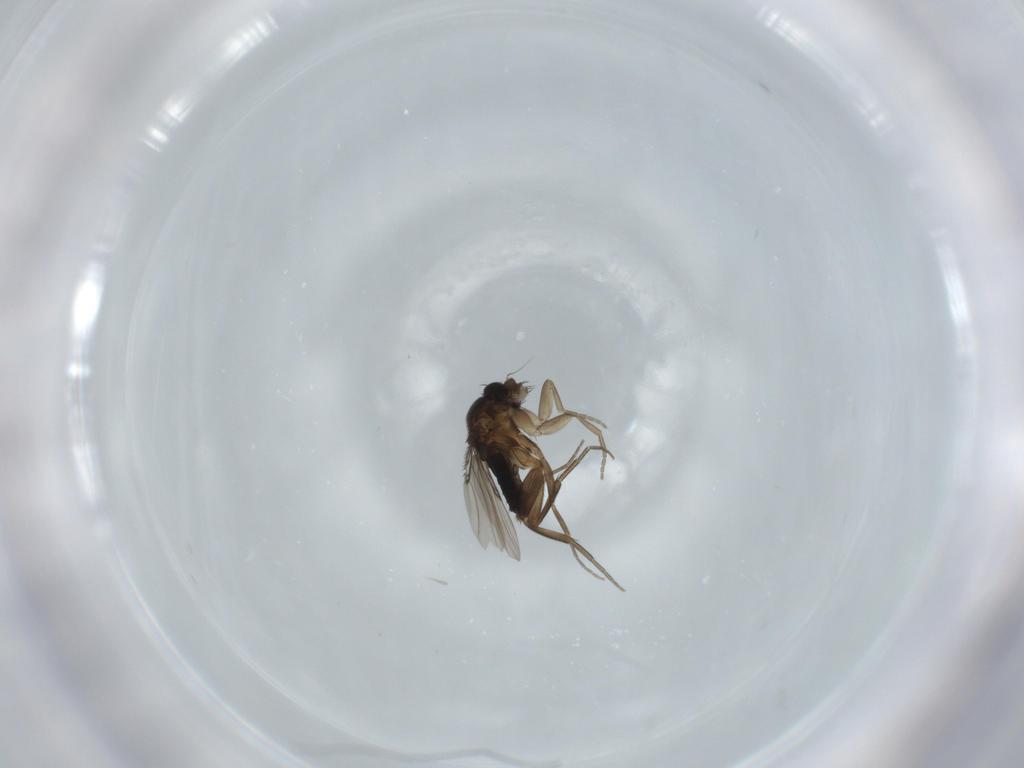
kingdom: Animalia
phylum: Arthropoda
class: Insecta
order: Diptera
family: Phoridae
